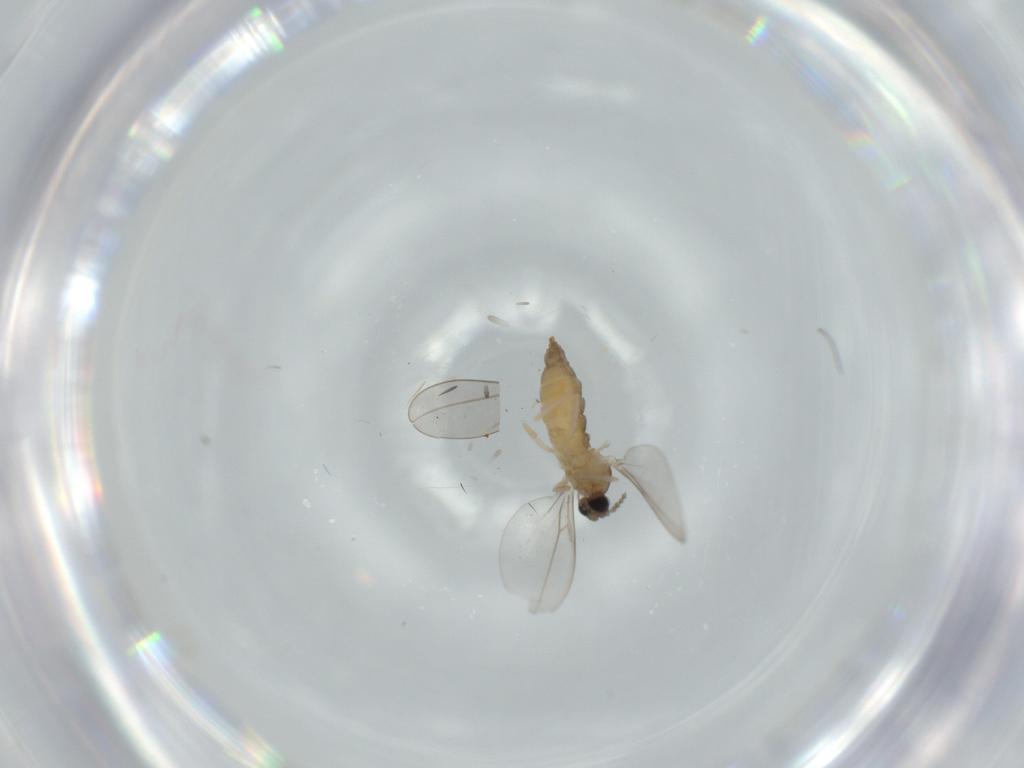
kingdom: Animalia
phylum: Arthropoda
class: Insecta
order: Diptera
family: Cecidomyiidae
